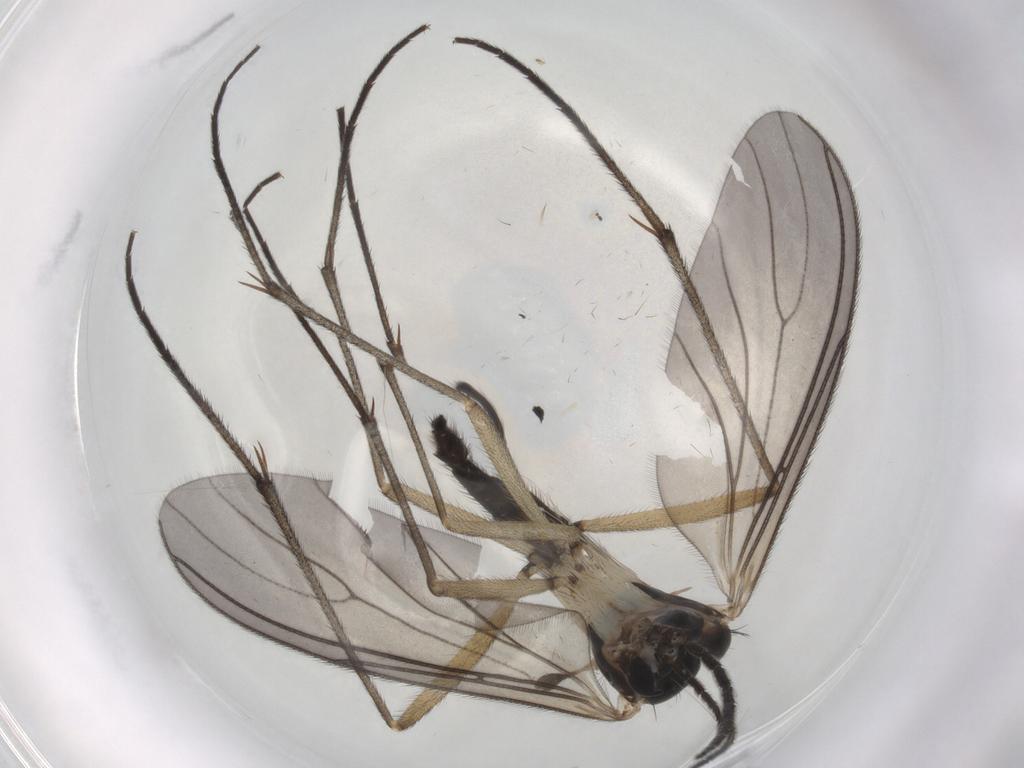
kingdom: Animalia
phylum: Arthropoda
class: Insecta
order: Diptera
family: Sciaridae
